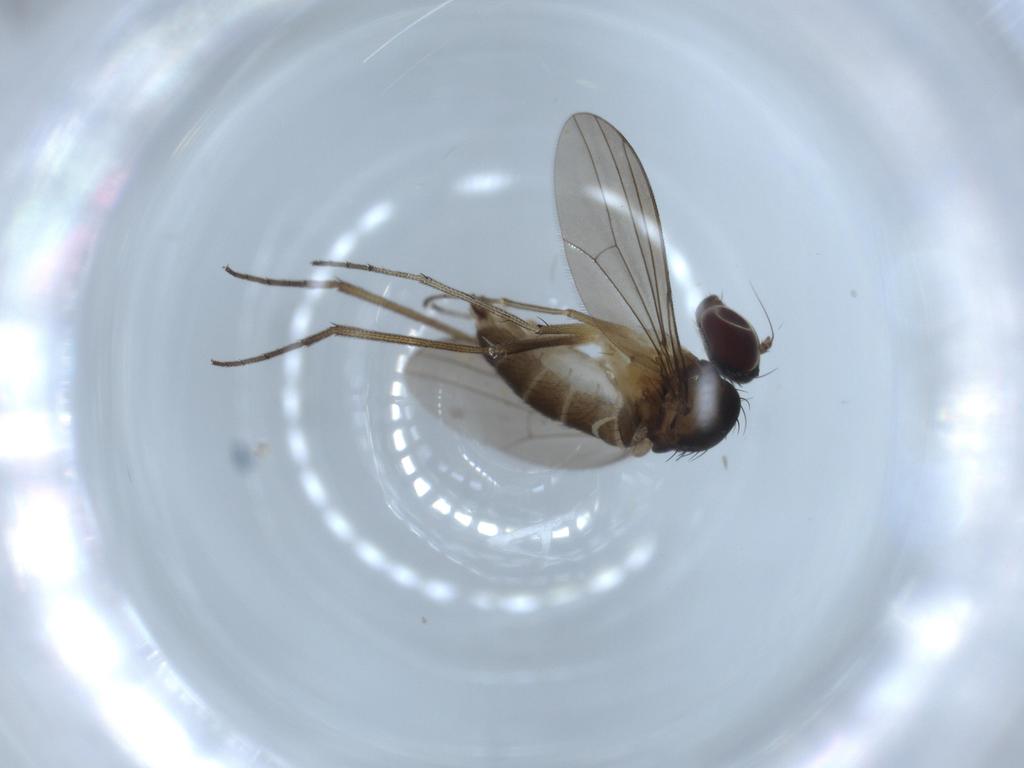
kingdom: Animalia
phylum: Arthropoda
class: Insecta
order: Diptera
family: Dolichopodidae
